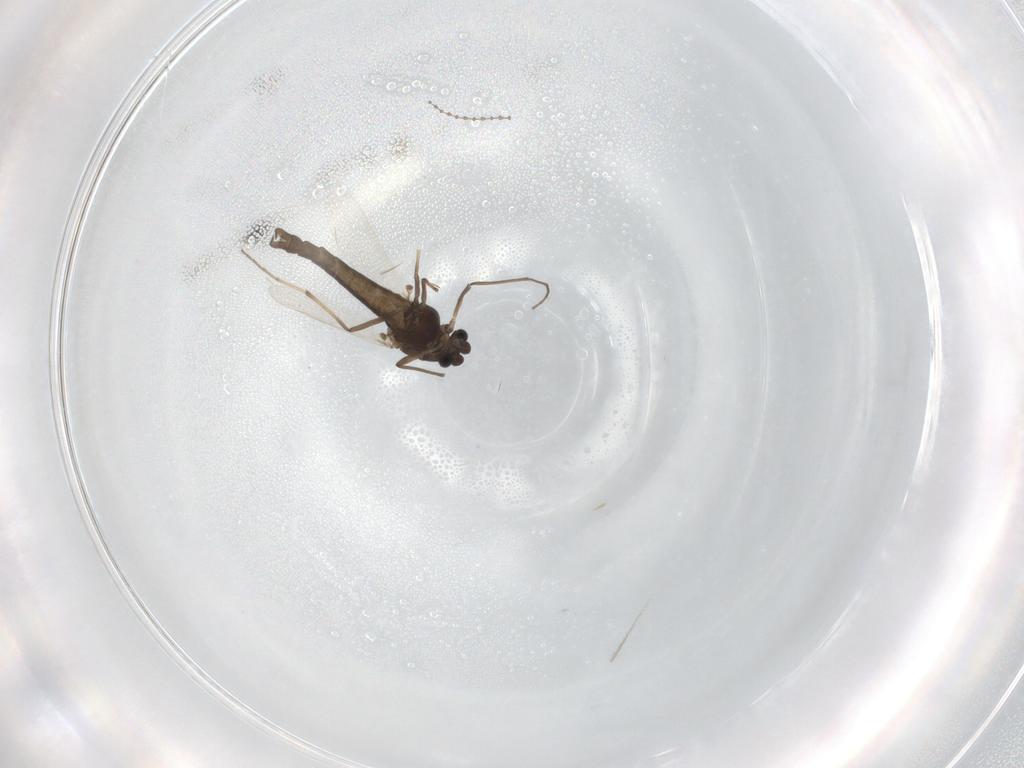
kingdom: Animalia
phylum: Arthropoda
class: Insecta
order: Diptera
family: Chironomidae
